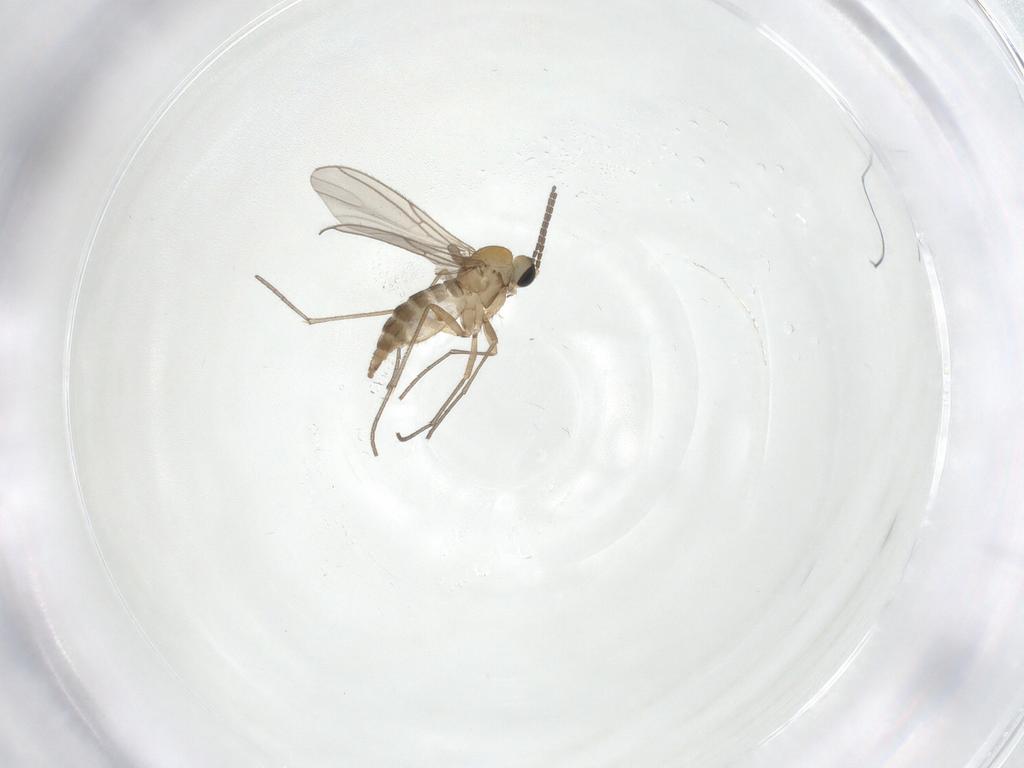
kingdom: Animalia
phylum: Arthropoda
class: Insecta
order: Diptera
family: Sciaridae
